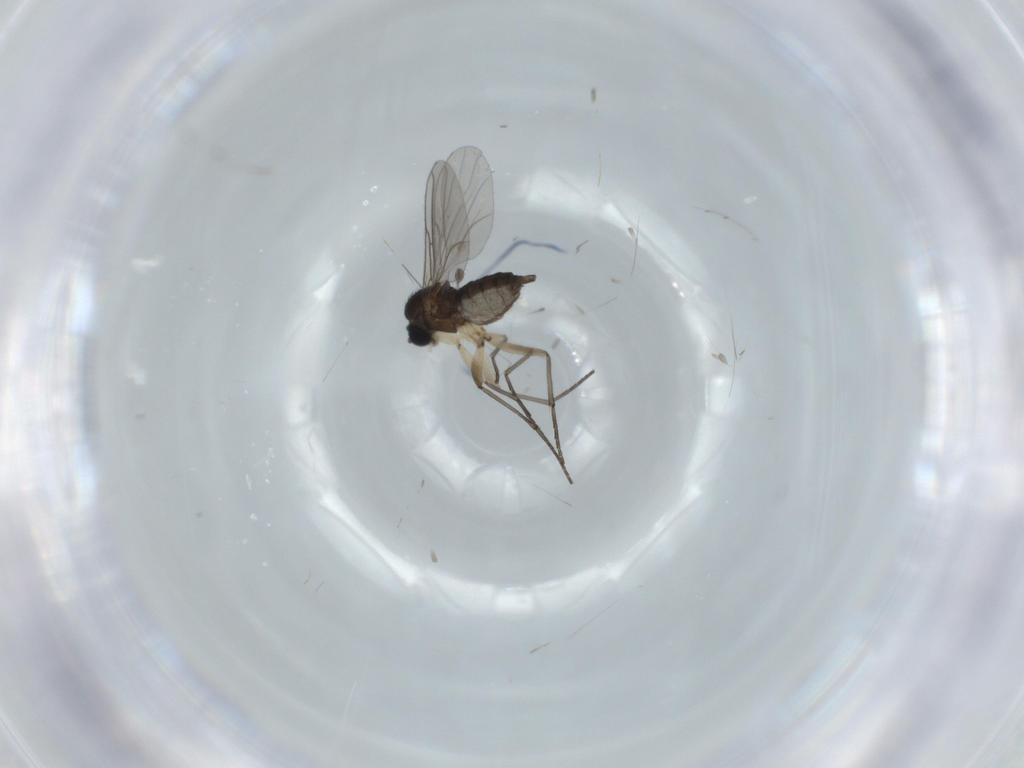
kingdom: Animalia
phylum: Arthropoda
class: Insecta
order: Diptera
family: Sciaridae
